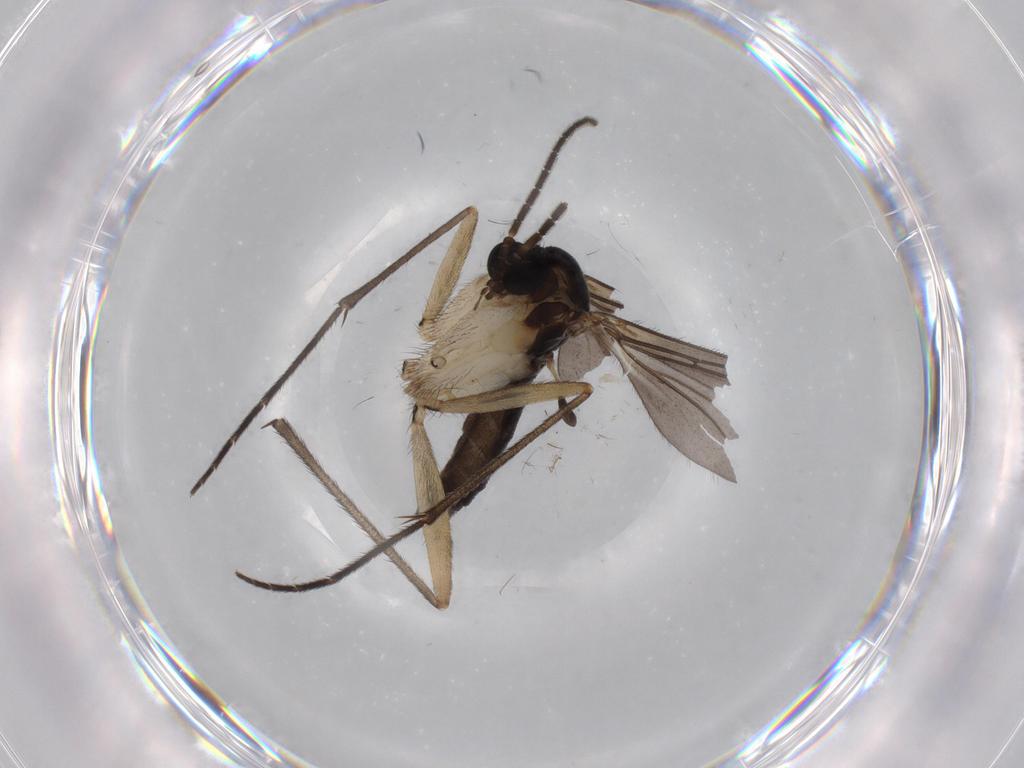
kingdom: Animalia
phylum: Arthropoda
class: Insecta
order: Diptera
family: Sciaridae
